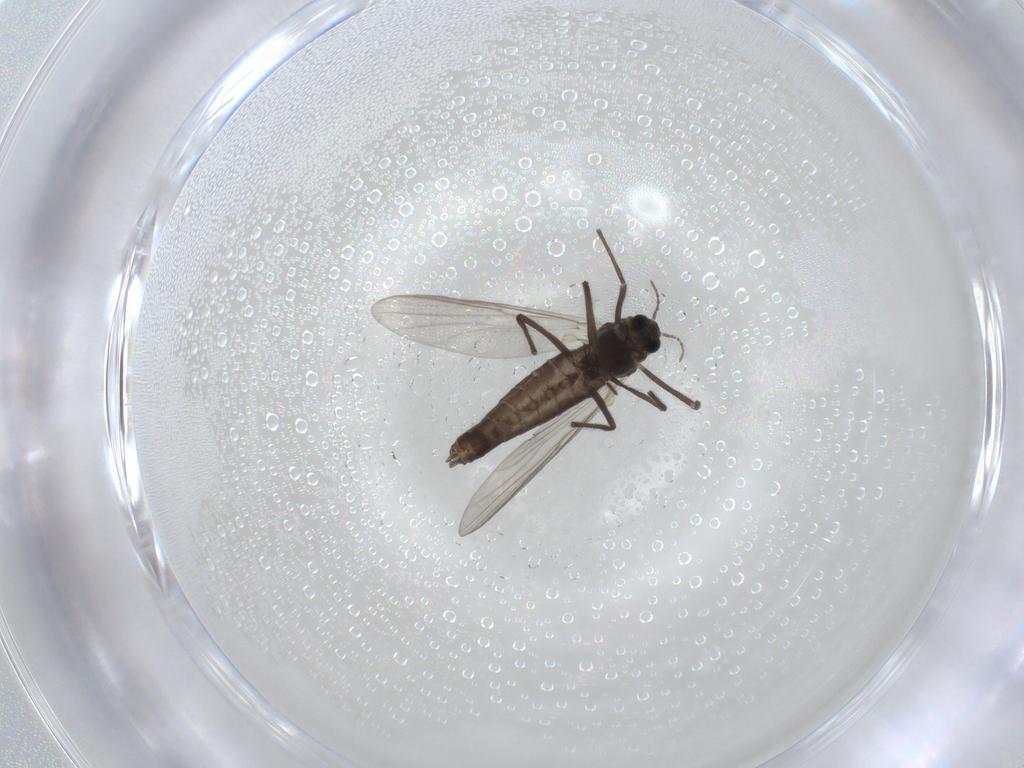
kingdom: Animalia
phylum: Arthropoda
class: Insecta
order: Diptera
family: Chironomidae
